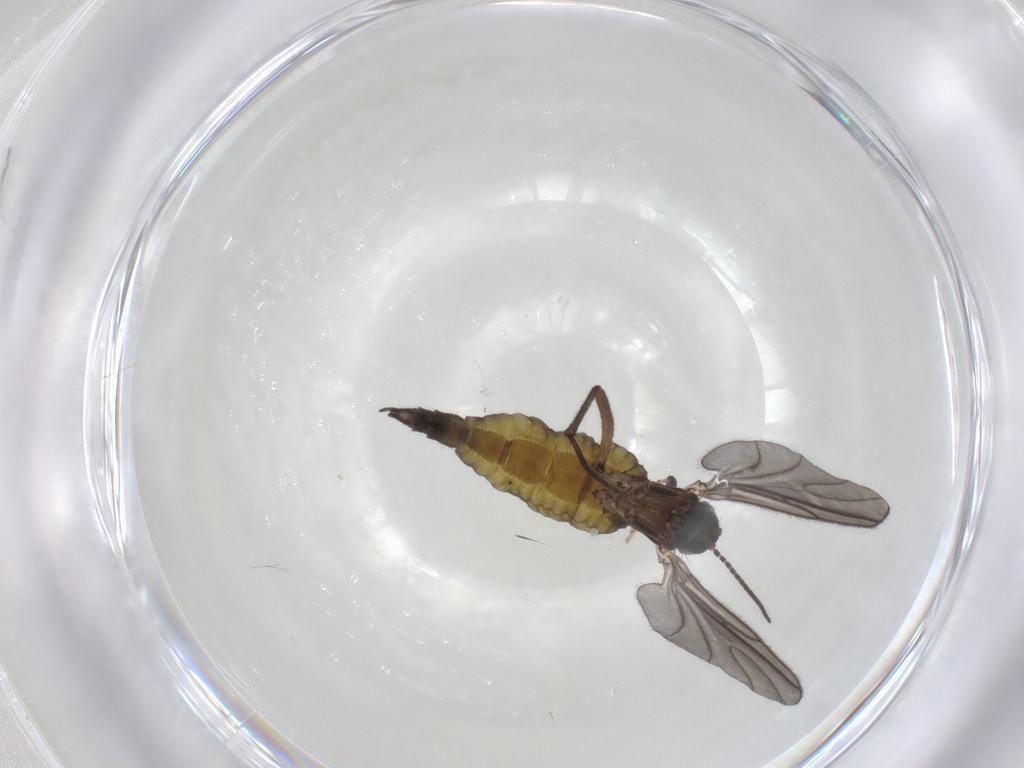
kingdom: Animalia
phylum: Arthropoda
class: Insecta
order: Diptera
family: Sciaridae
